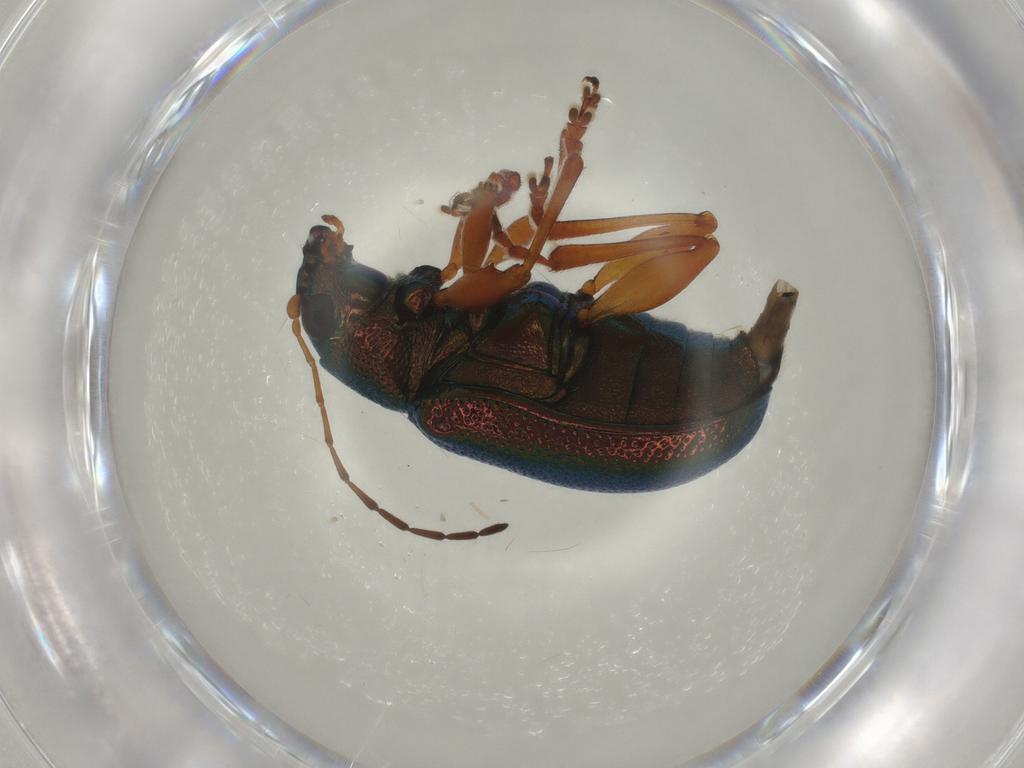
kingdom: Animalia
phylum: Arthropoda
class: Insecta
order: Coleoptera
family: Chrysomelidae
